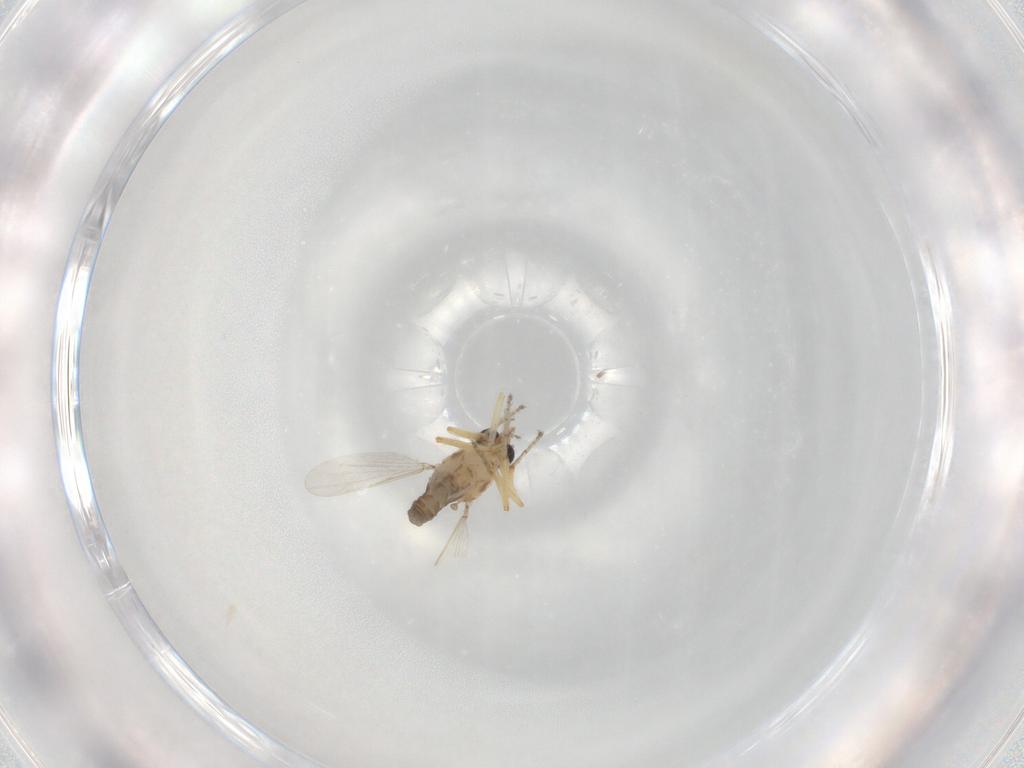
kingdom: Animalia
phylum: Arthropoda
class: Insecta
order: Diptera
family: Ceratopogonidae
